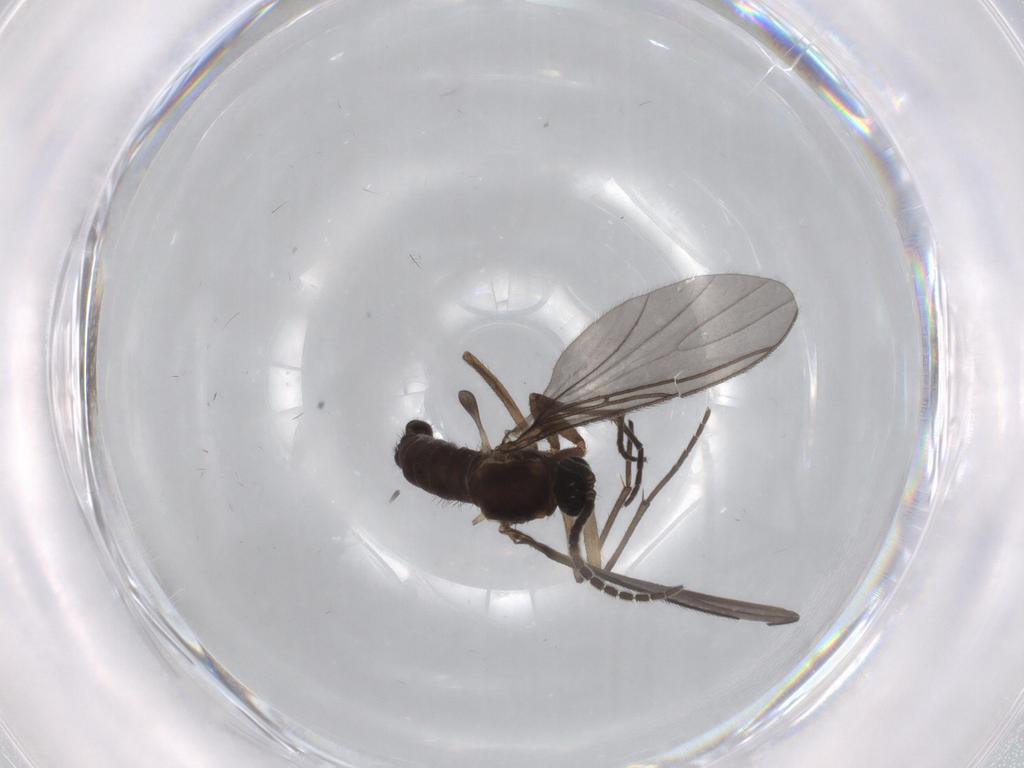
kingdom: Animalia
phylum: Arthropoda
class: Insecta
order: Diptera
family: Sciaridae
